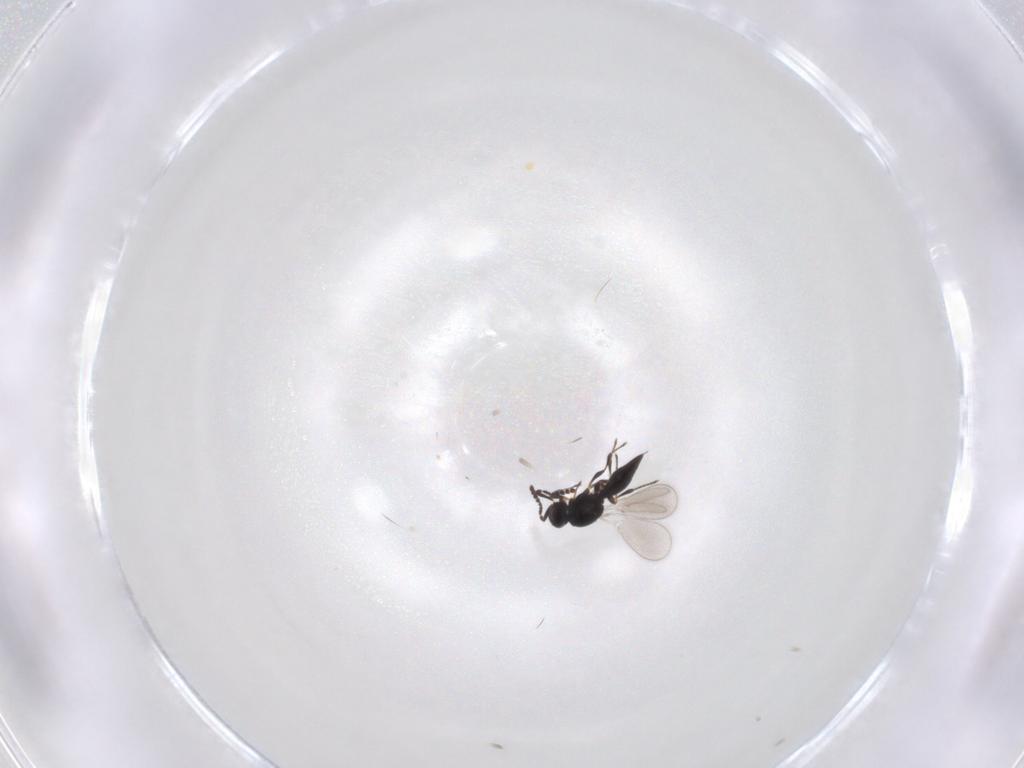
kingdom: Animalia
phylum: Arthropoda
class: Insecta
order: Hymenoptera
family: Platygastridae
